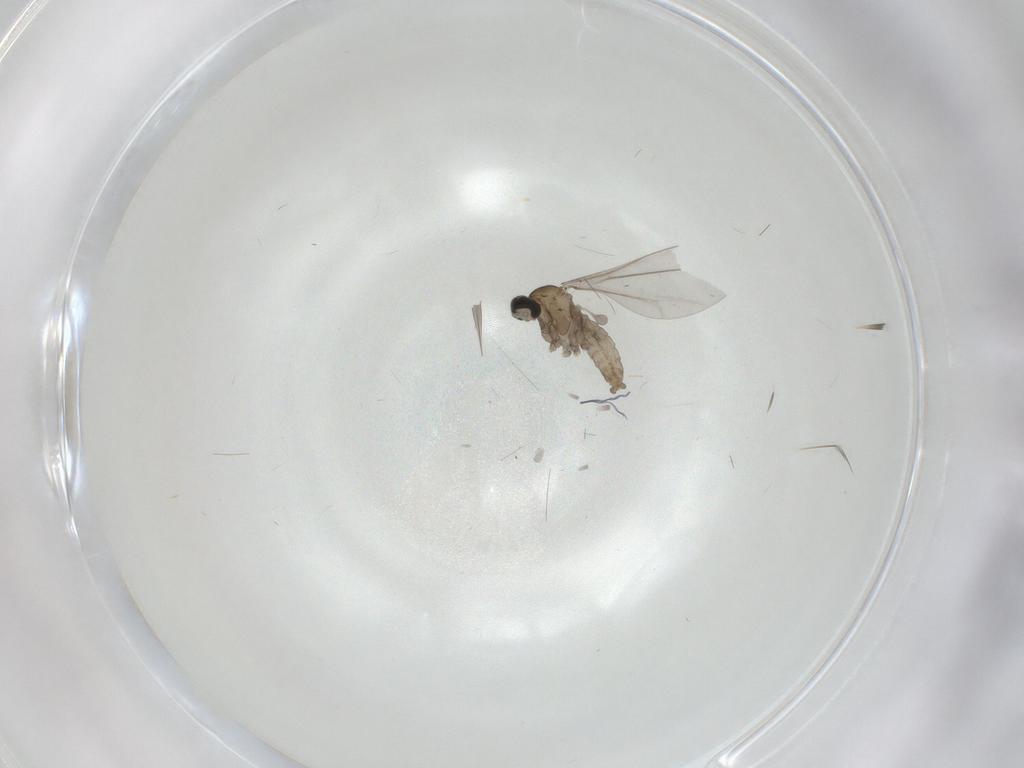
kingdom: Animalia
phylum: Arthropoda
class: Insecta
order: Diptera
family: Cecidomyiidae
